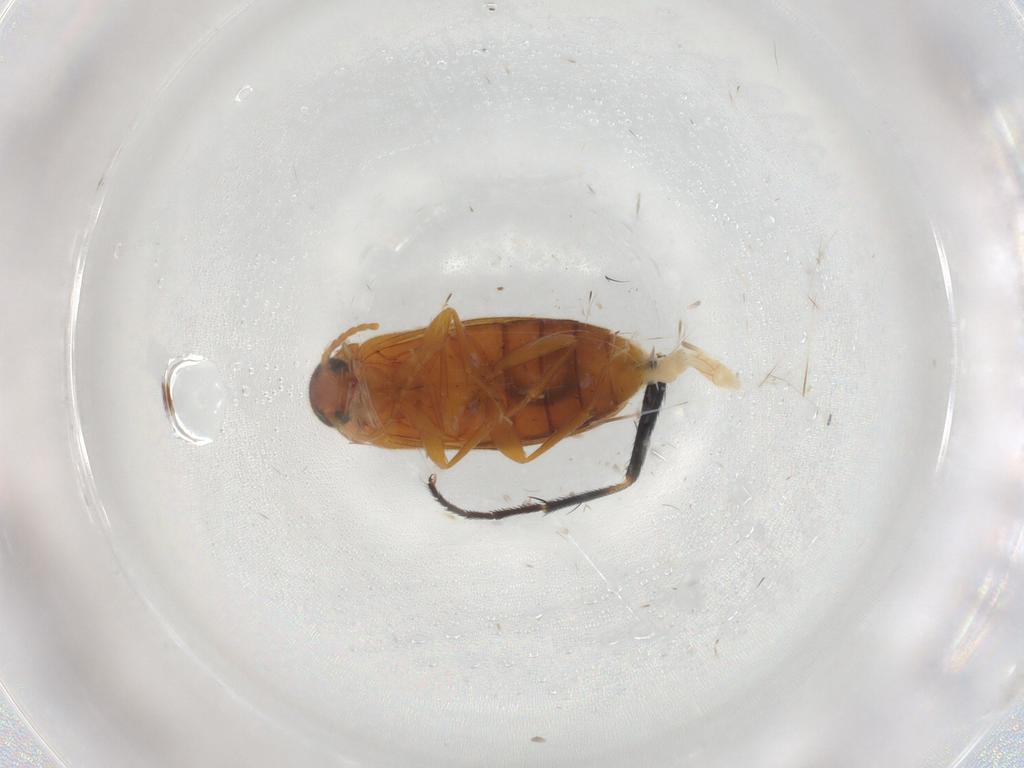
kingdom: Animalia
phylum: Arthropoda
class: Insecta
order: Coleoptera
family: Scraptiidae
